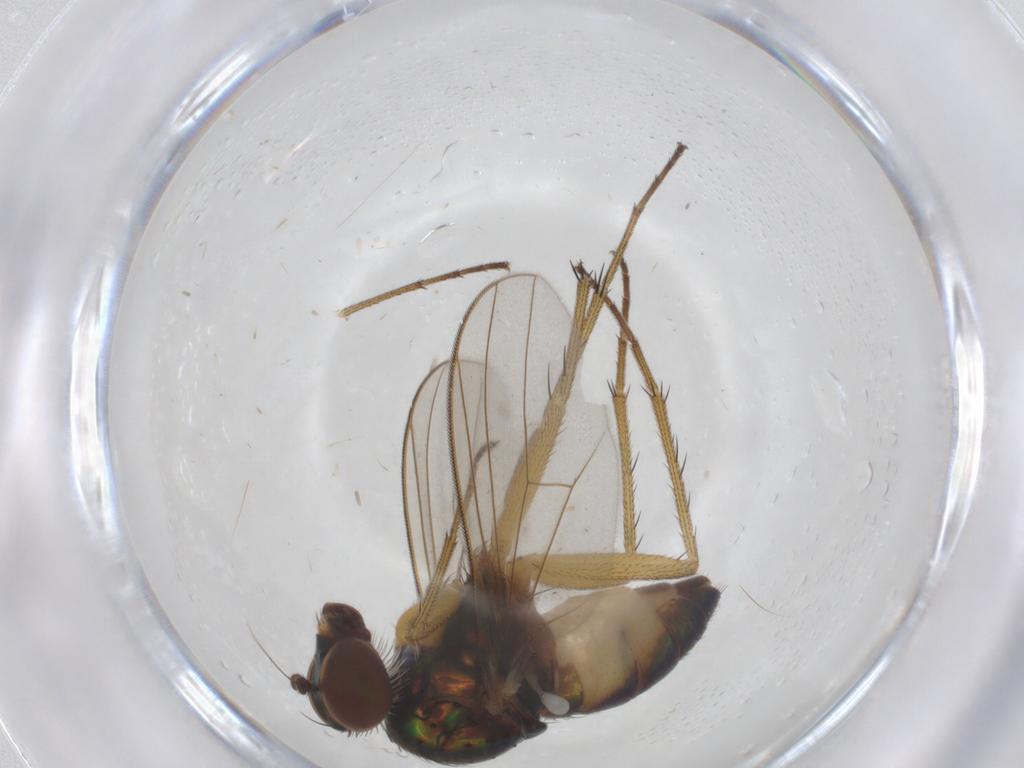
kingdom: Animalia
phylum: Arthropoda
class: Insecta
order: Diptera
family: Dolichopodidae
